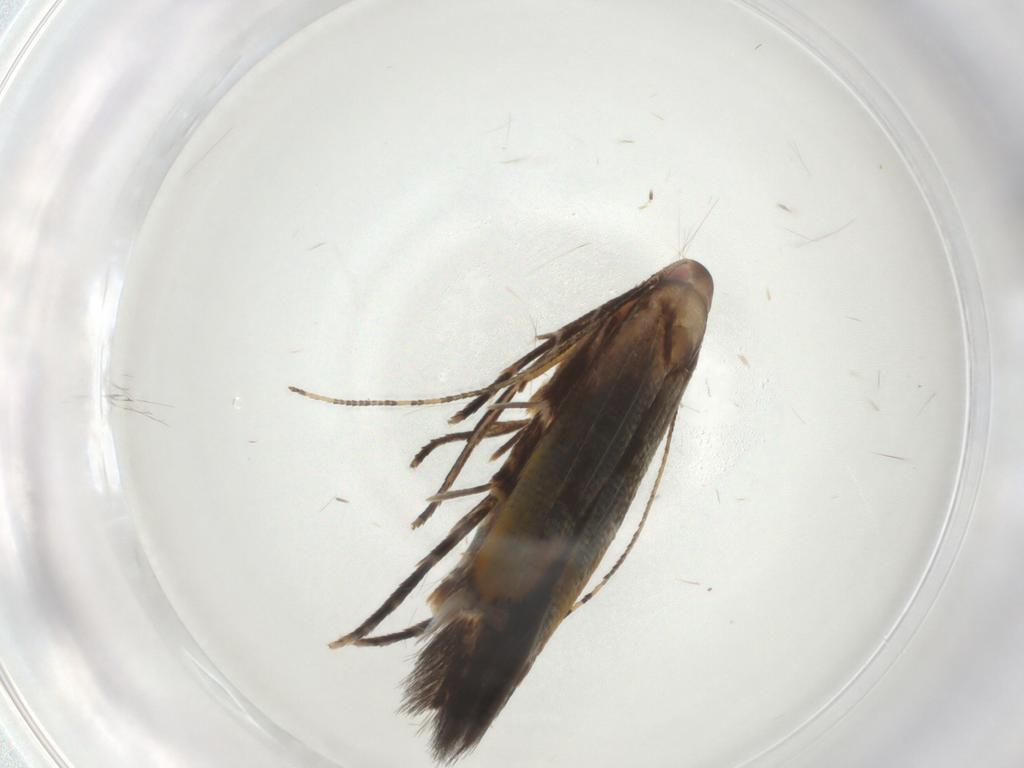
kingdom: Animalia
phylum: Arthropoda
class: Insecta
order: Lepidoptera
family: Cosmopterigidae
